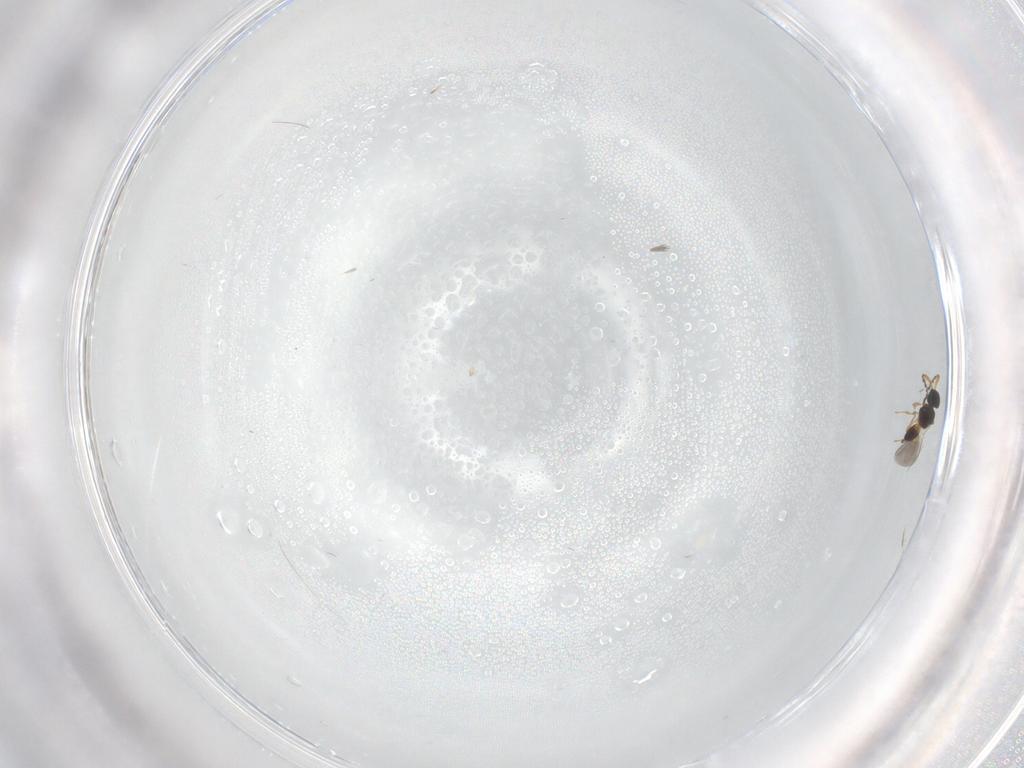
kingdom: Animalia
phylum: Arthropoda
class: Insecta
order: Hymenoptera
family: Platygastridae
